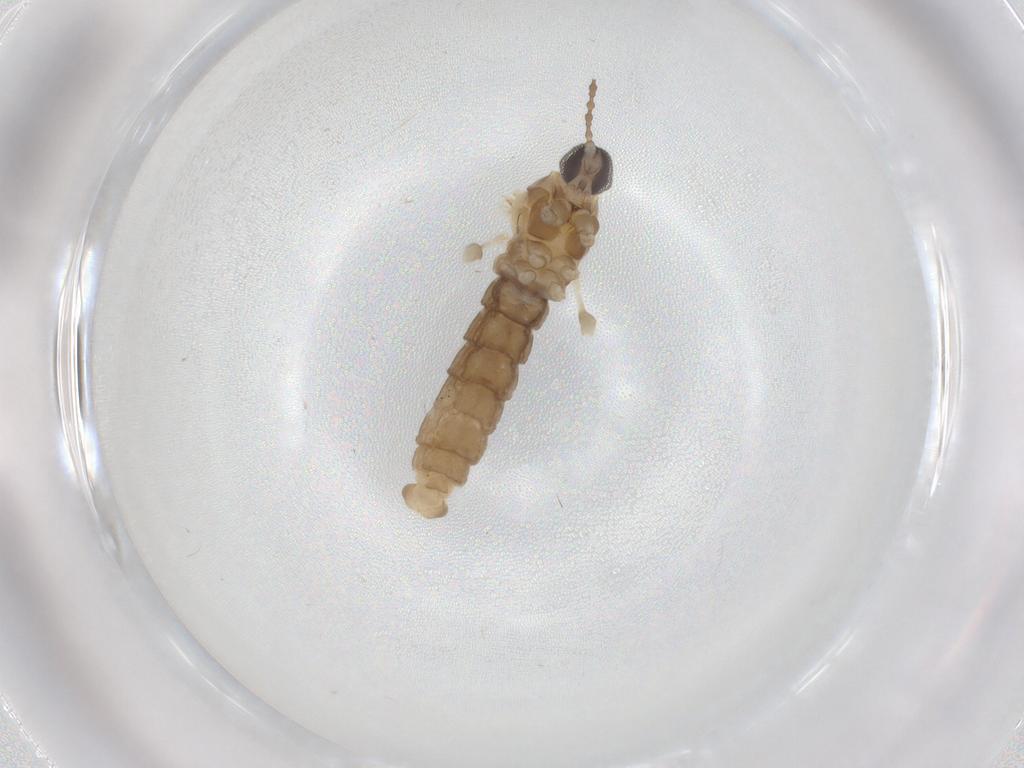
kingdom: Animalia
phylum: Arthropoda
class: Insecta
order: Diptera
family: Cecidomyiidae
